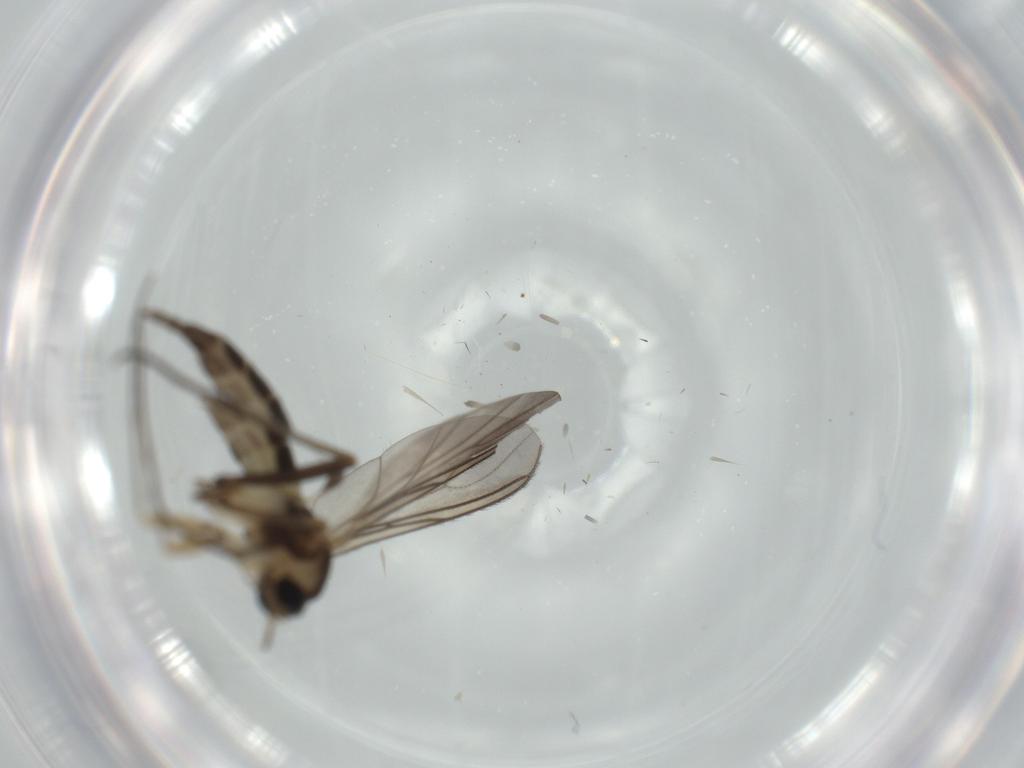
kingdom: Animalia
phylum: Arthropoda
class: Insecta
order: Diptera
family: Sciaridae
